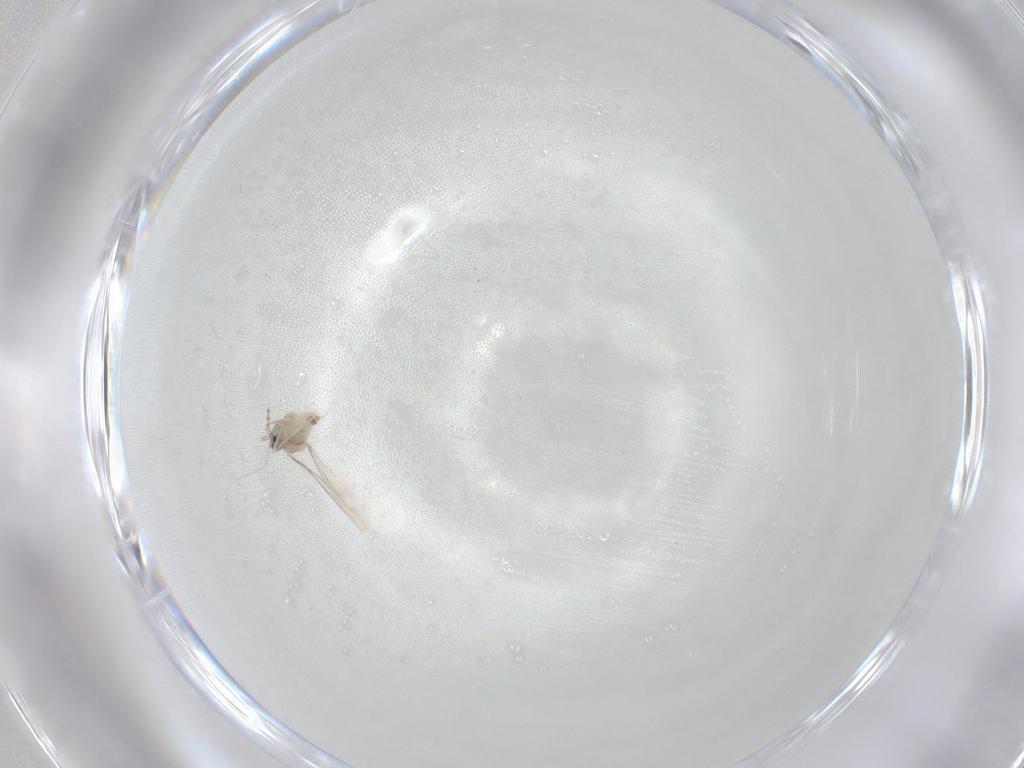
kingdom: Animalia
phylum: Arthropoda
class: Insecta
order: Diptera
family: Cecidomyiidae
